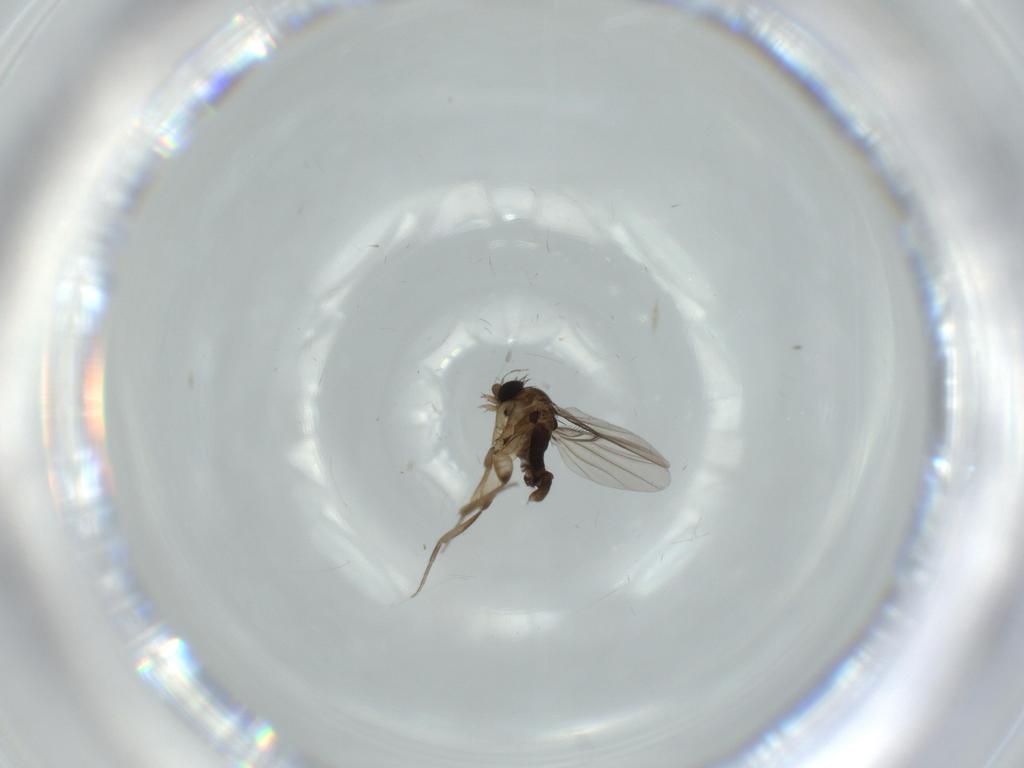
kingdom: Animalia
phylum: Arthropoda
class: Insecta
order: Diptera
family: Phoridae
